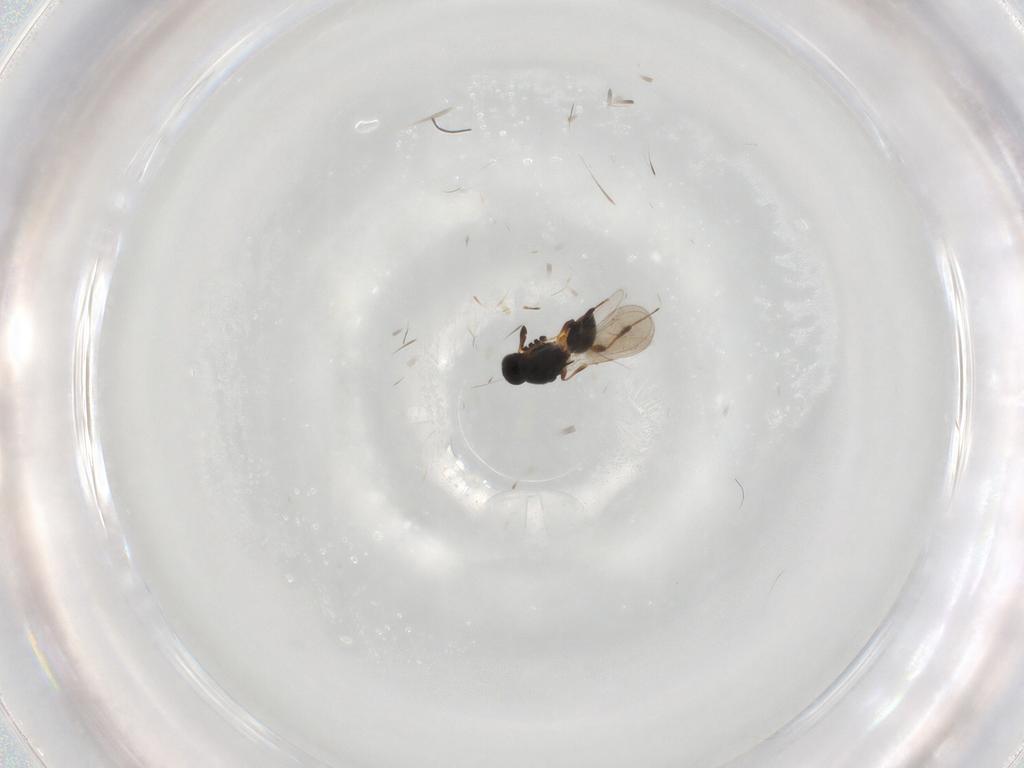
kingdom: Animalia
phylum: Arthropoda
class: Insecta
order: Hymenoptera
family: Platygastridae
